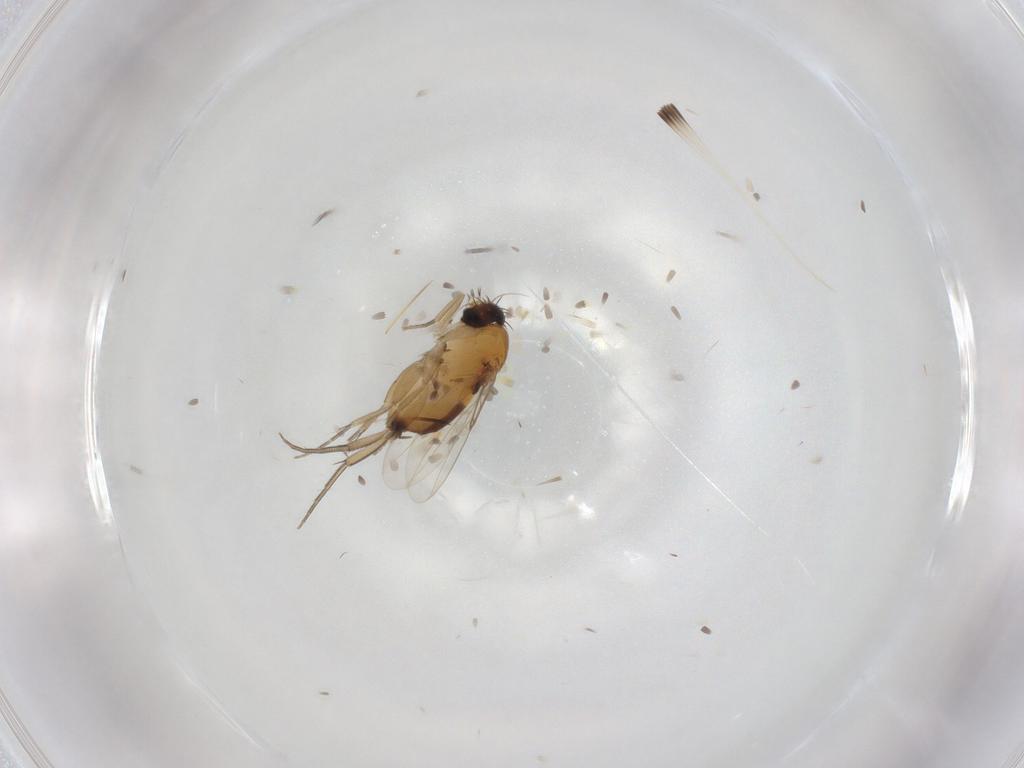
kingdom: Animalia
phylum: Arthropoda
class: Insecta
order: Diptera
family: Limoniidae
